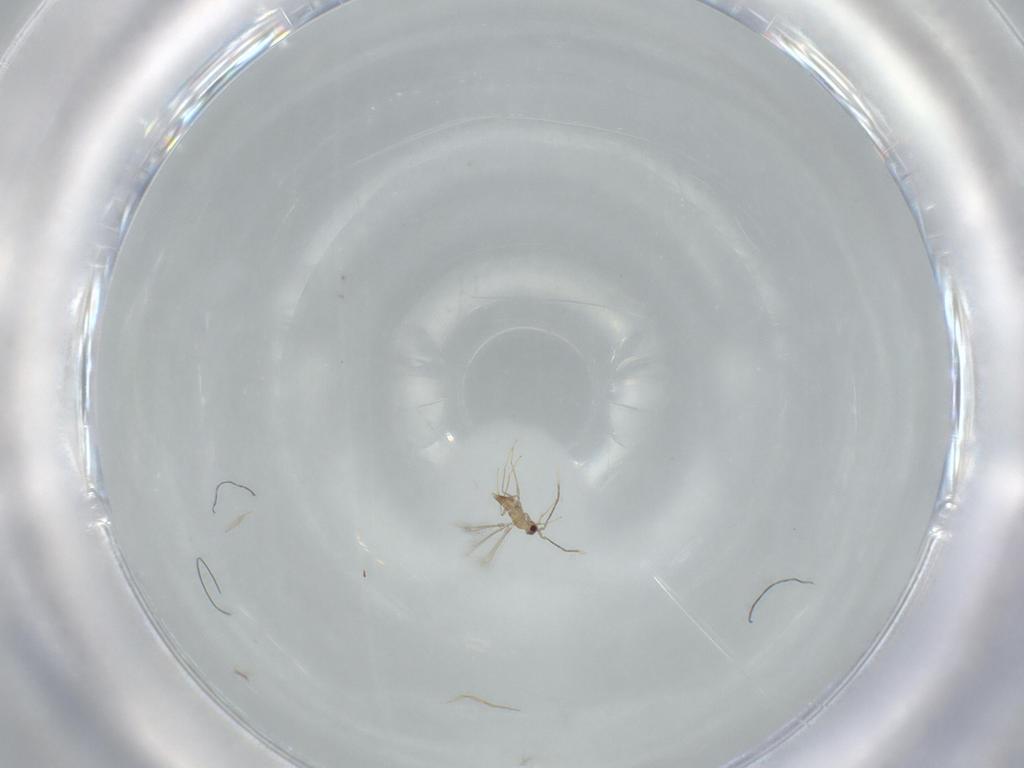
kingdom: Animalia
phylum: Arthropoda
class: Insecta
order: Hymenoptera
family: Mymaridae
